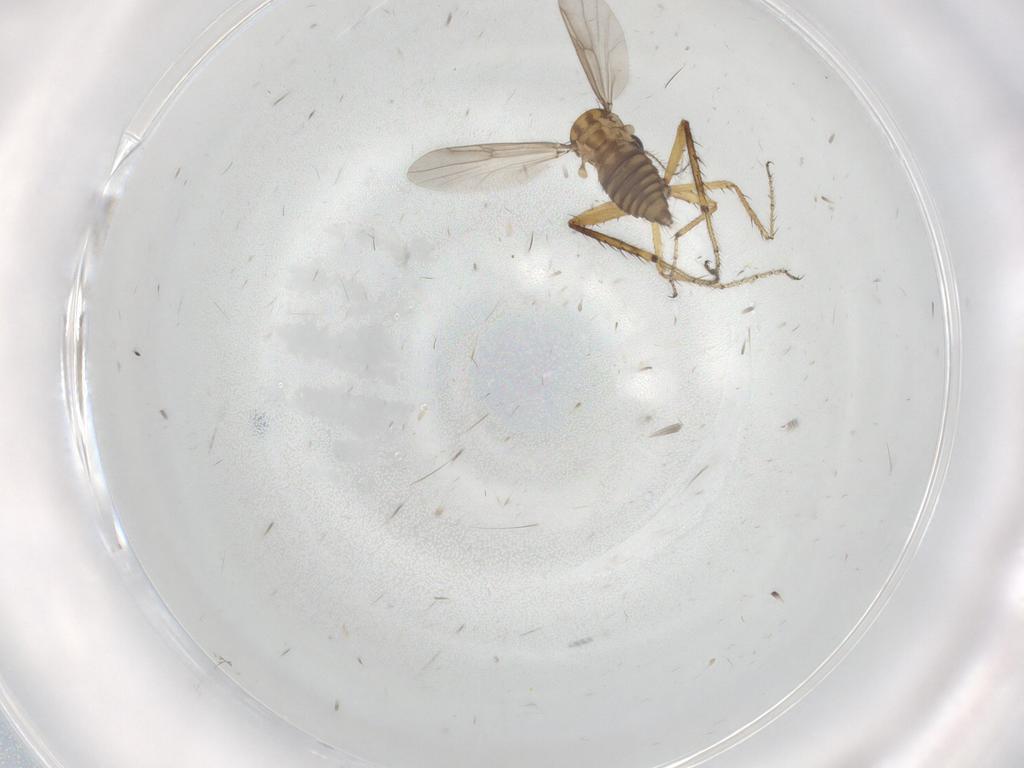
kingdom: Animalia
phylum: Arthropoda
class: Insecta
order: Diptera
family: Ceratopogonidae
